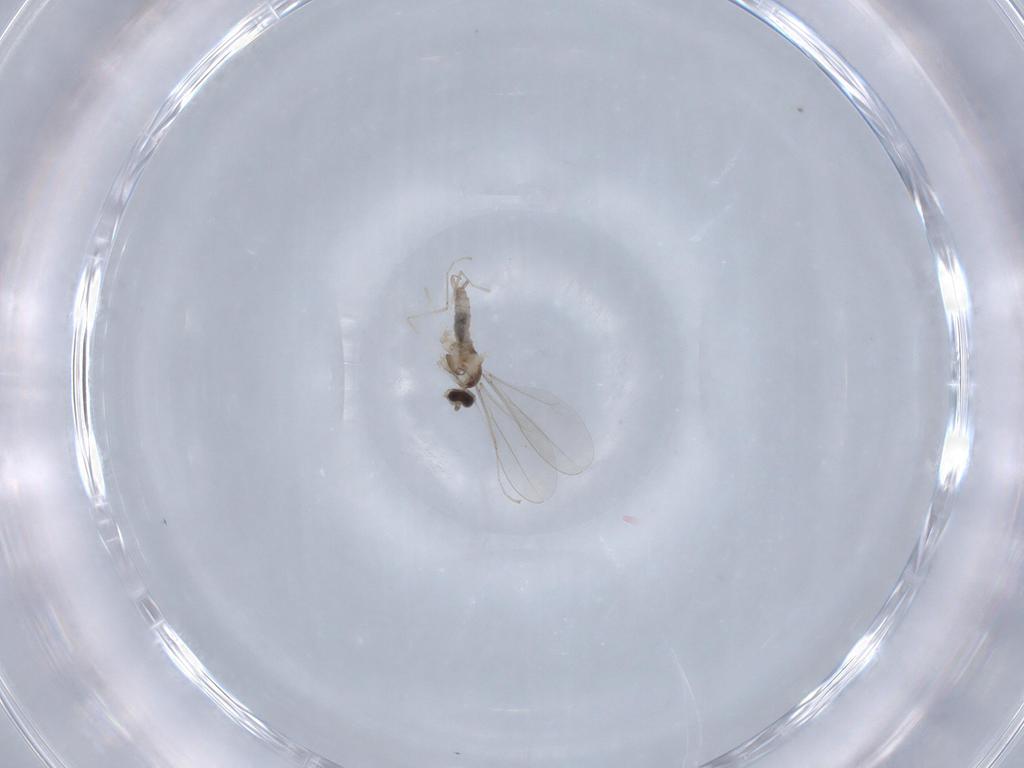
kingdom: Animalia
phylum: Arthropoda
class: Insecta
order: Diptera
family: Cecidomyiidae
